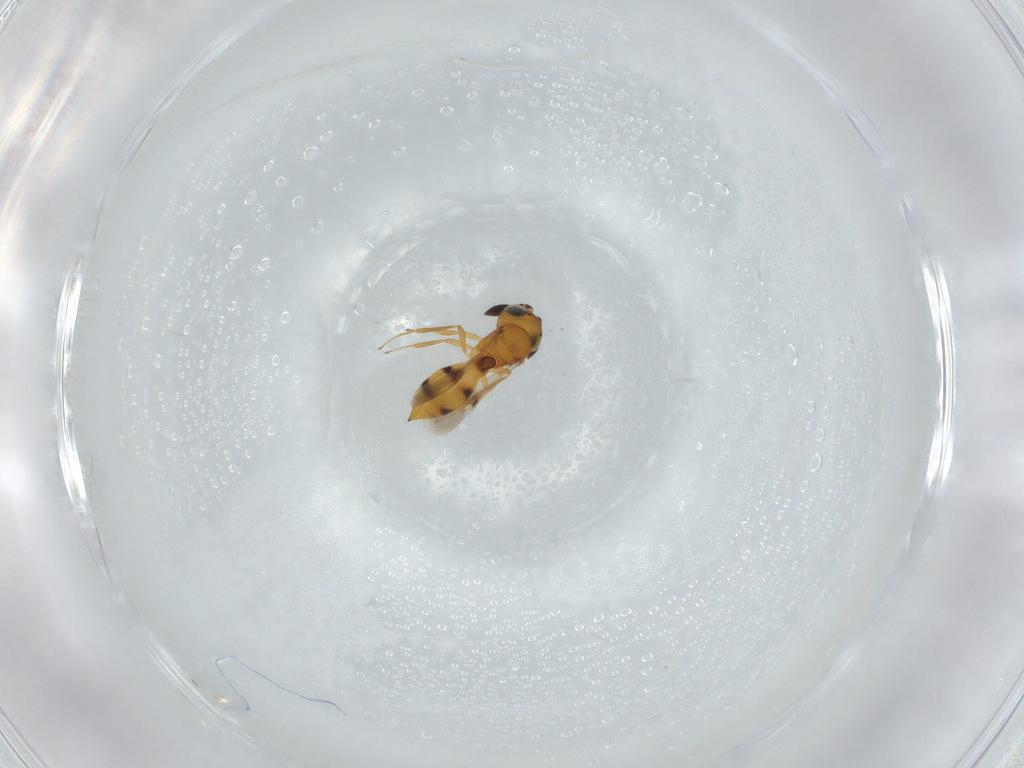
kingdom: Animalia
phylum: Arthropoda
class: Insecta
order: Hymenoptera
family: Scelionidae
